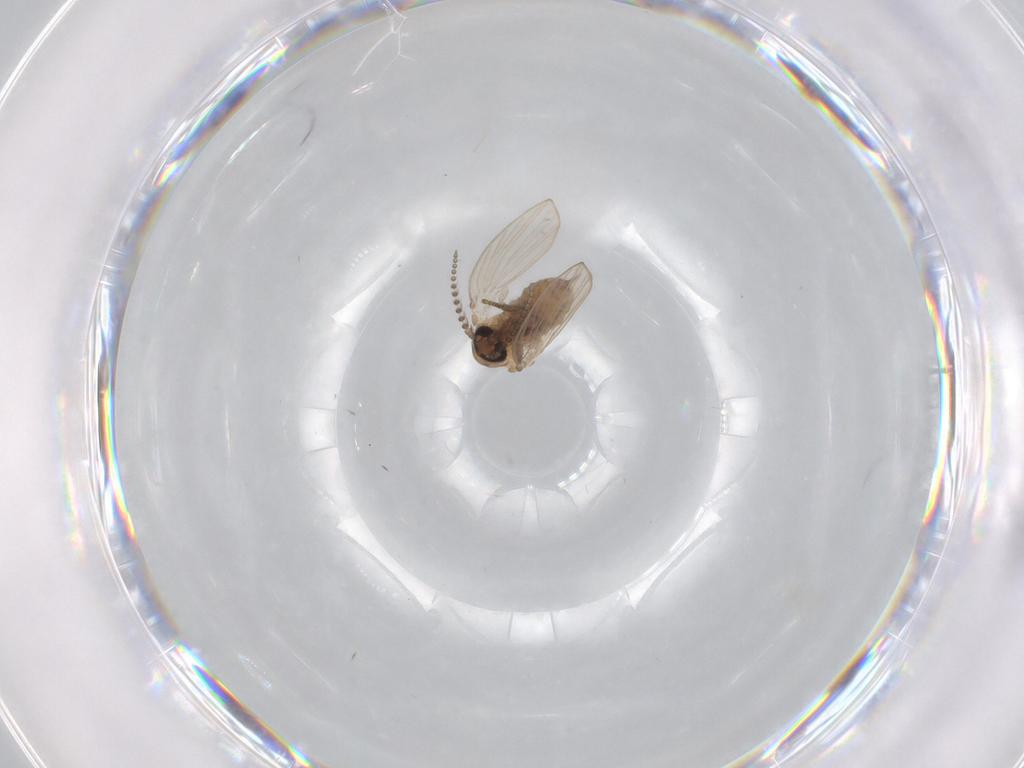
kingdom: Animalia
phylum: Arthropoda
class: Insecta
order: Diptera
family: Psychodidae
